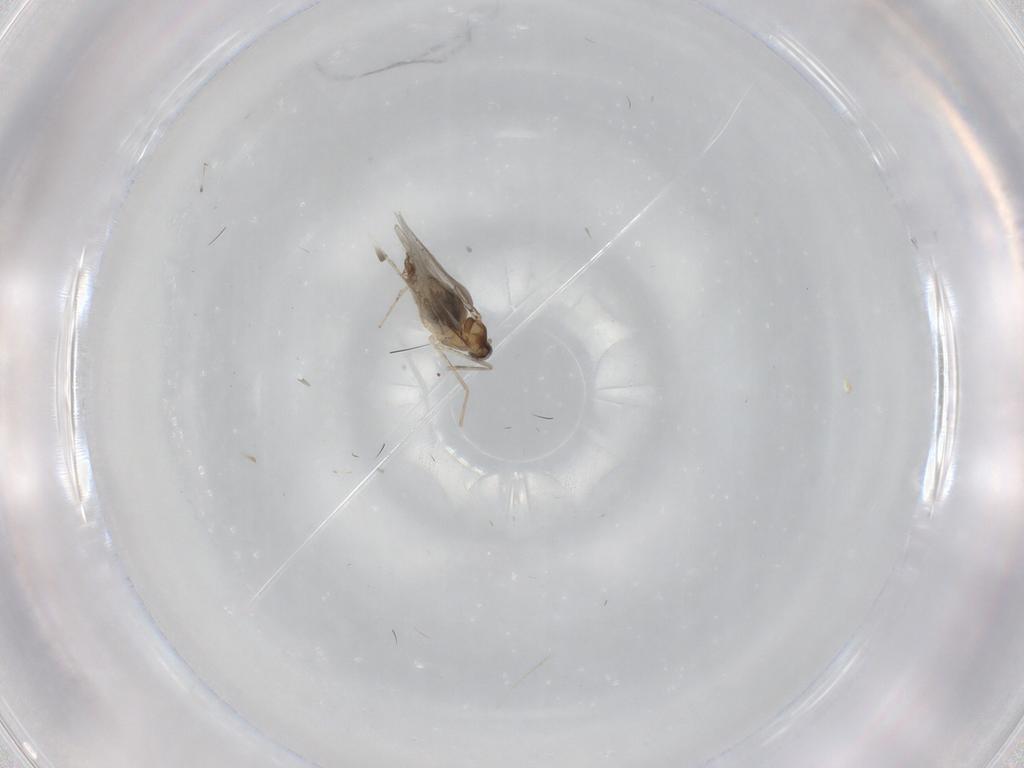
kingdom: Animalia
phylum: Arthropoda
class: Insecta
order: Diptera
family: Cecidomyiidae
